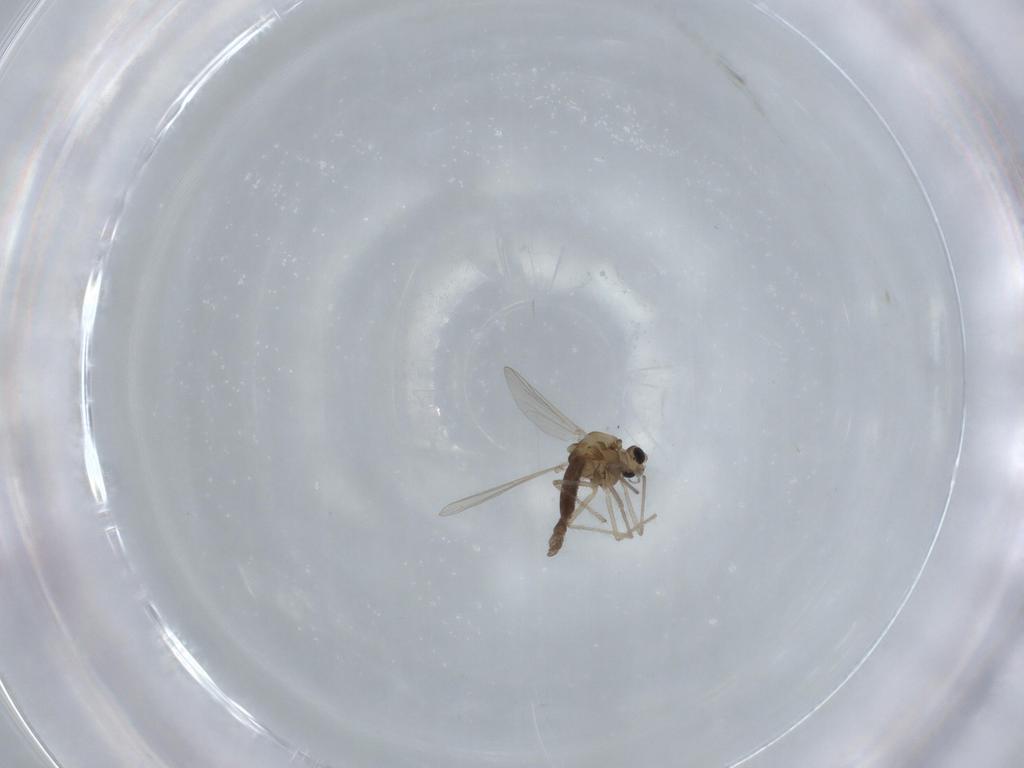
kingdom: Animalia
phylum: Arthropoda
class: Insecta
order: Diptera
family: Chironomidae
